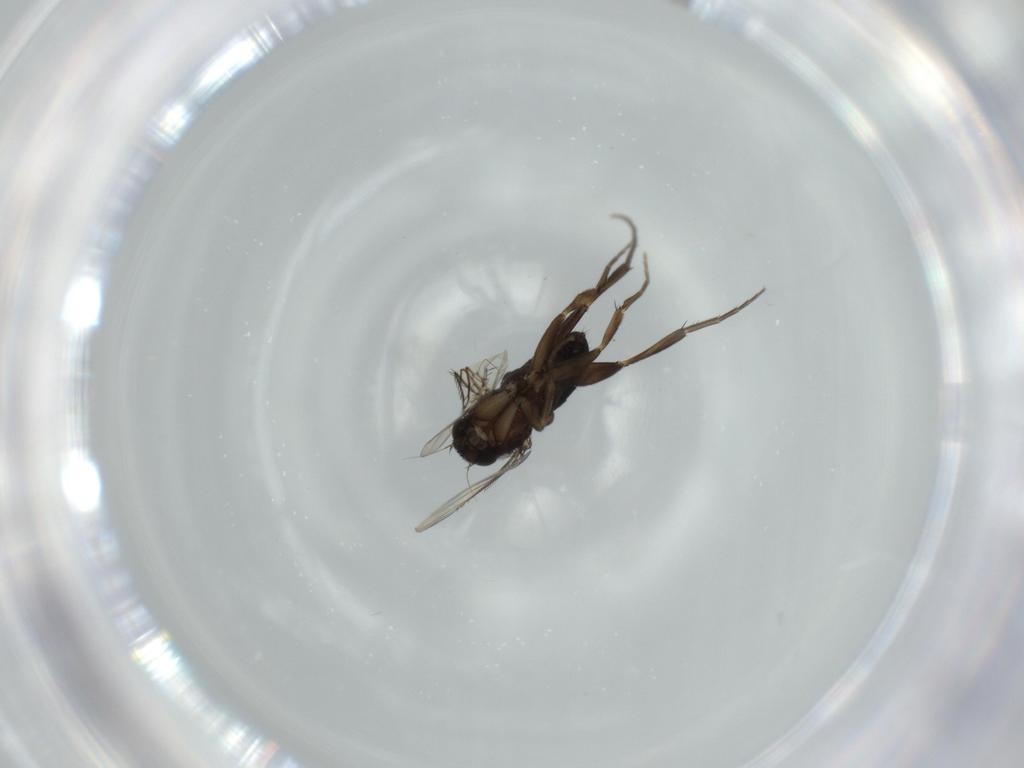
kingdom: Animalia
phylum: Arthropoda
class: Insecta
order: Diptera
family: Phoridae
